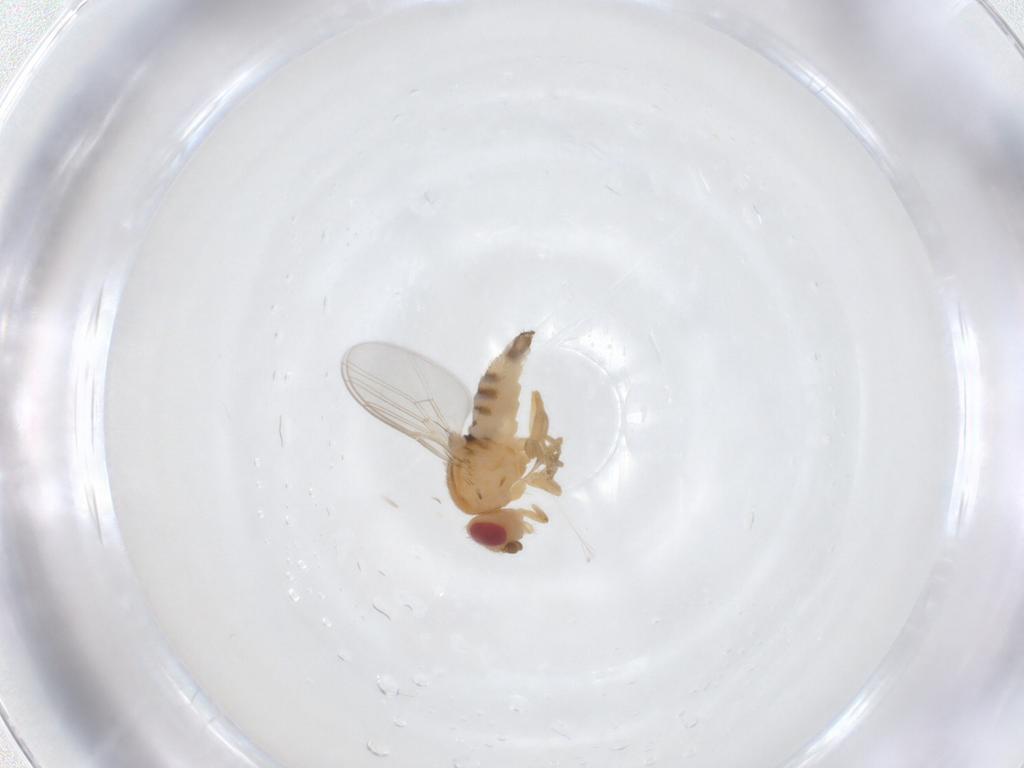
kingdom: Animalia
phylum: Arthropoda
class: Insecta
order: Diptera
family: Chloropidae
